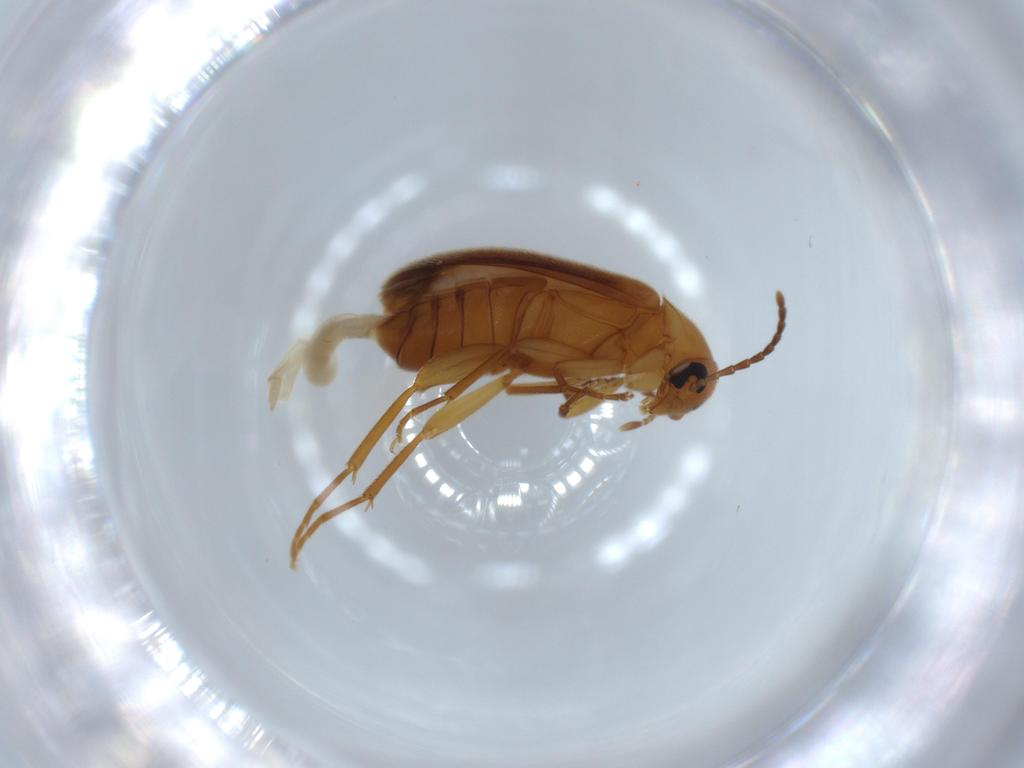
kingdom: Animalia
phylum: Arthropoda
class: Insecta
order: Coleoptera
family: Scraptiidae
